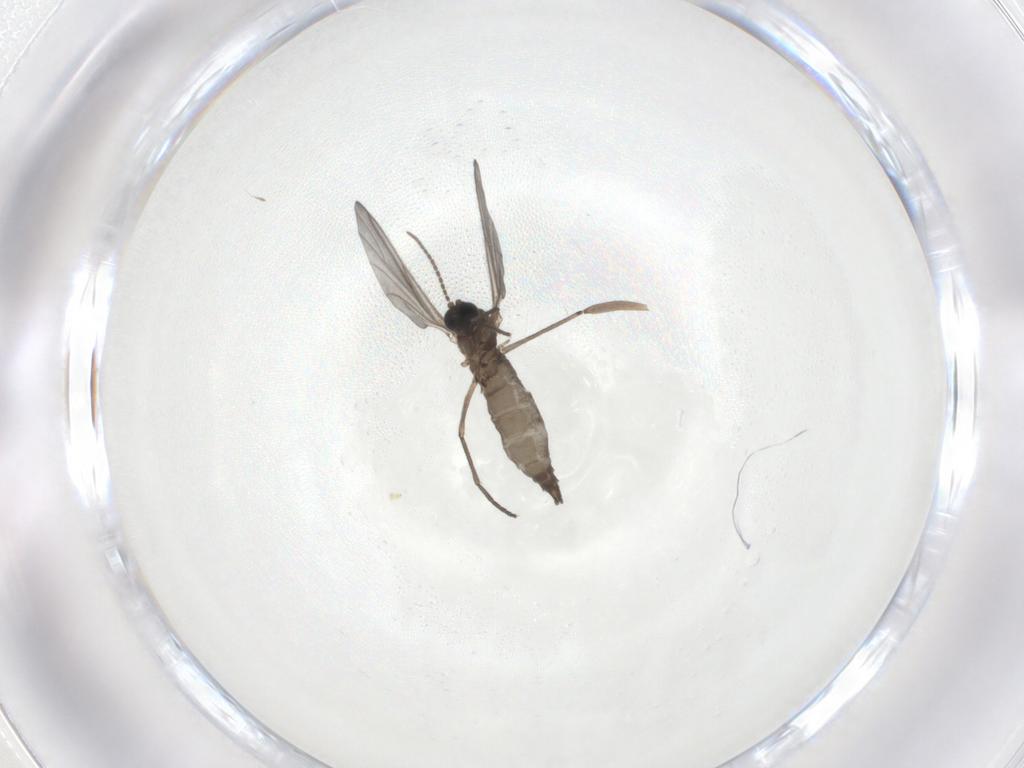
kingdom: Animalia
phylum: Arthropoda
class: Insecta
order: Diptera
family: Sciaridae
